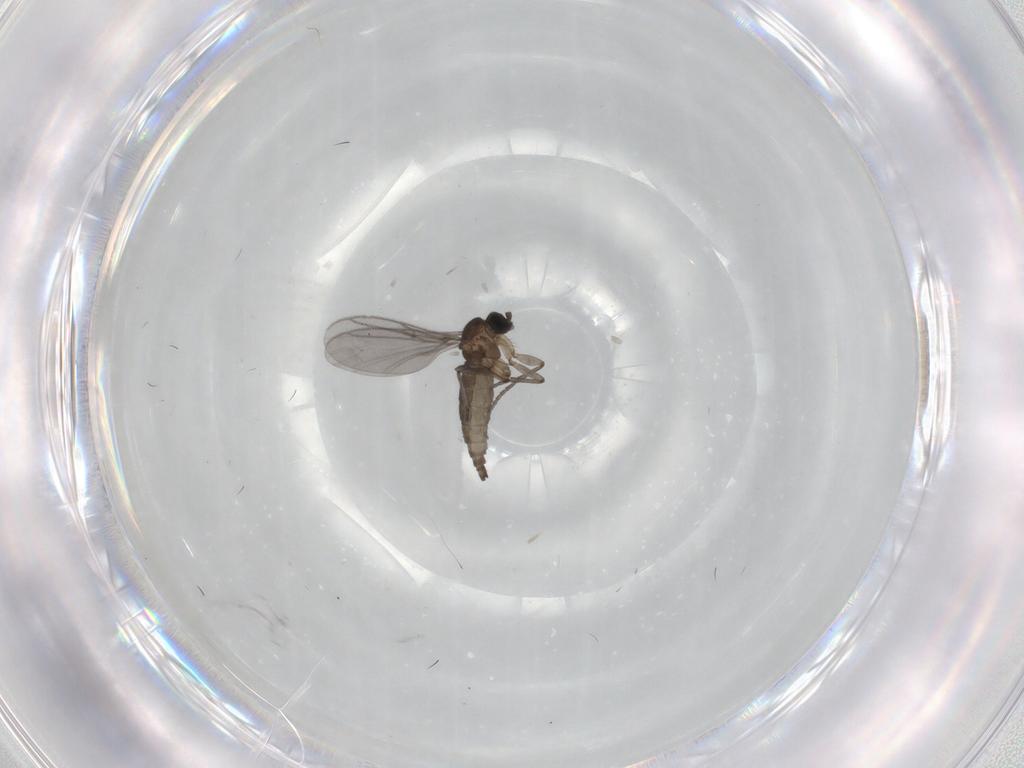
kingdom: Animalia
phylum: Arthropoda
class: Insecta
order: Diptera
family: Sciaridae
